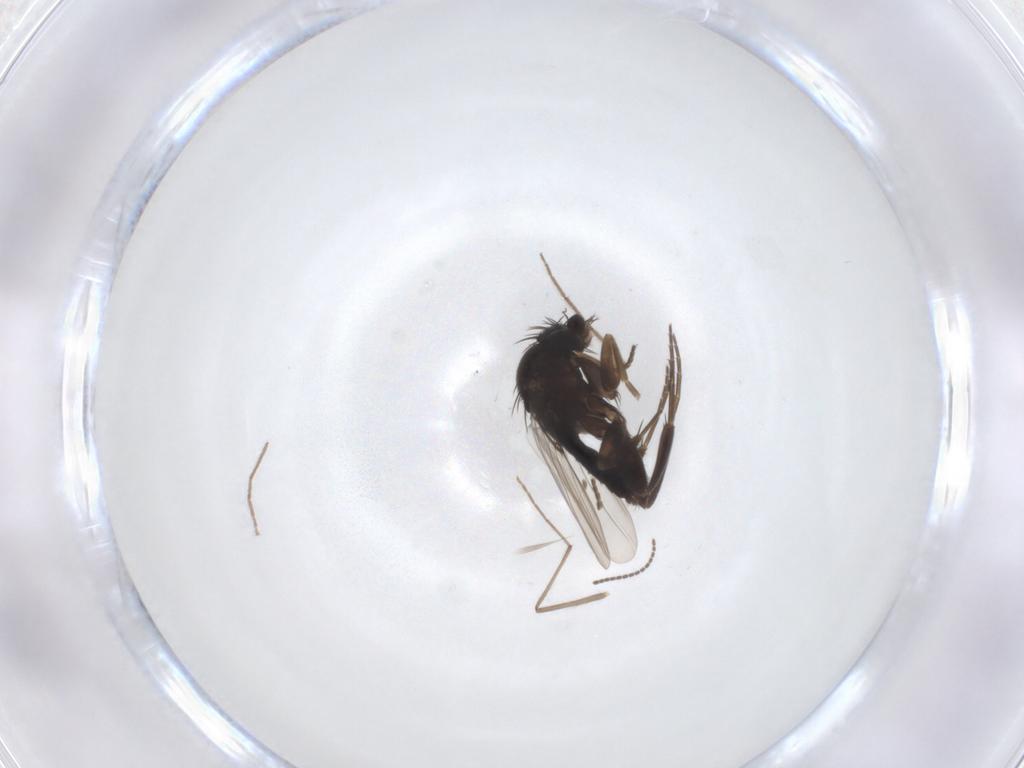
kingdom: Animalia
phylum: Arthropoda
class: Insecta
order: Diptera
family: Chironomidae
